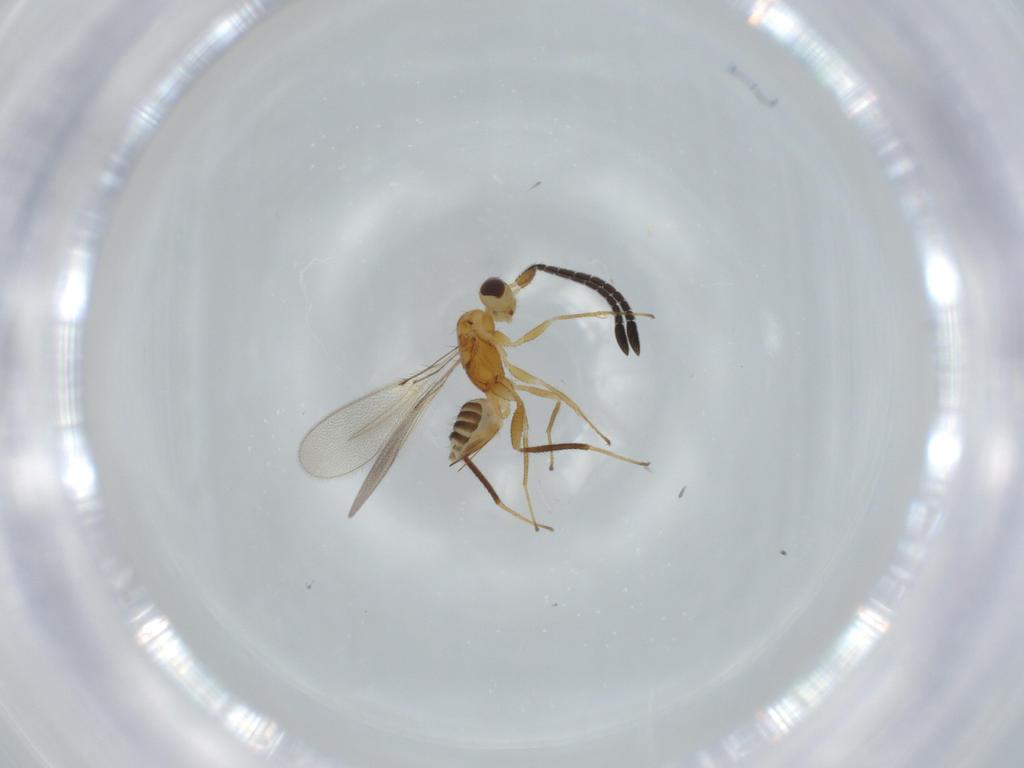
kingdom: Animalia
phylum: Arthropoda
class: Insecta
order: Hymenoptera
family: Scelionidae
